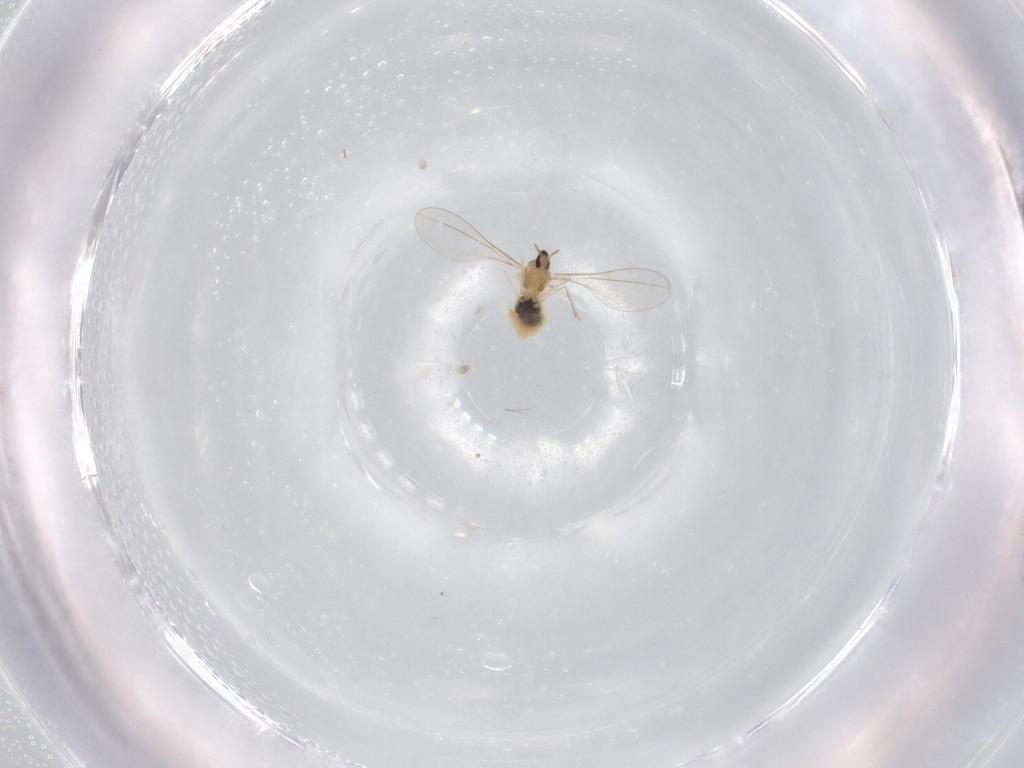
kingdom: Animalia
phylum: Arthropoda
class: Insecta
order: Diptera
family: Cecidomyiidae
